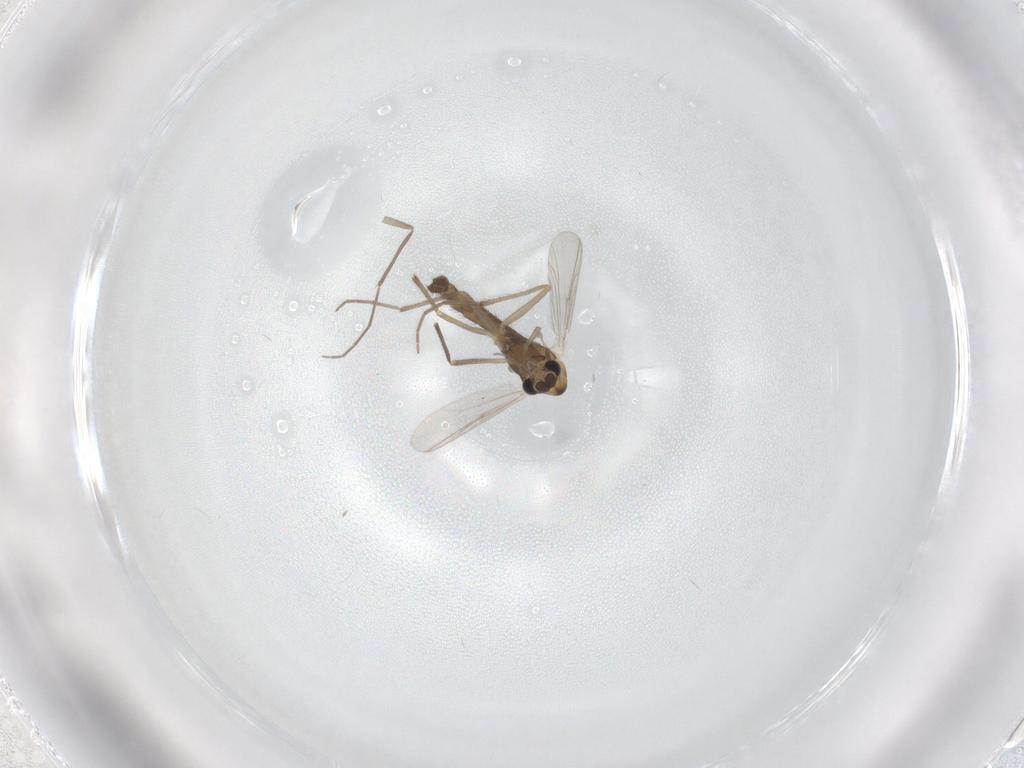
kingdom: Animalia
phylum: Arthropoda
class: Insecta
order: Diptera
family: Chironomidae
